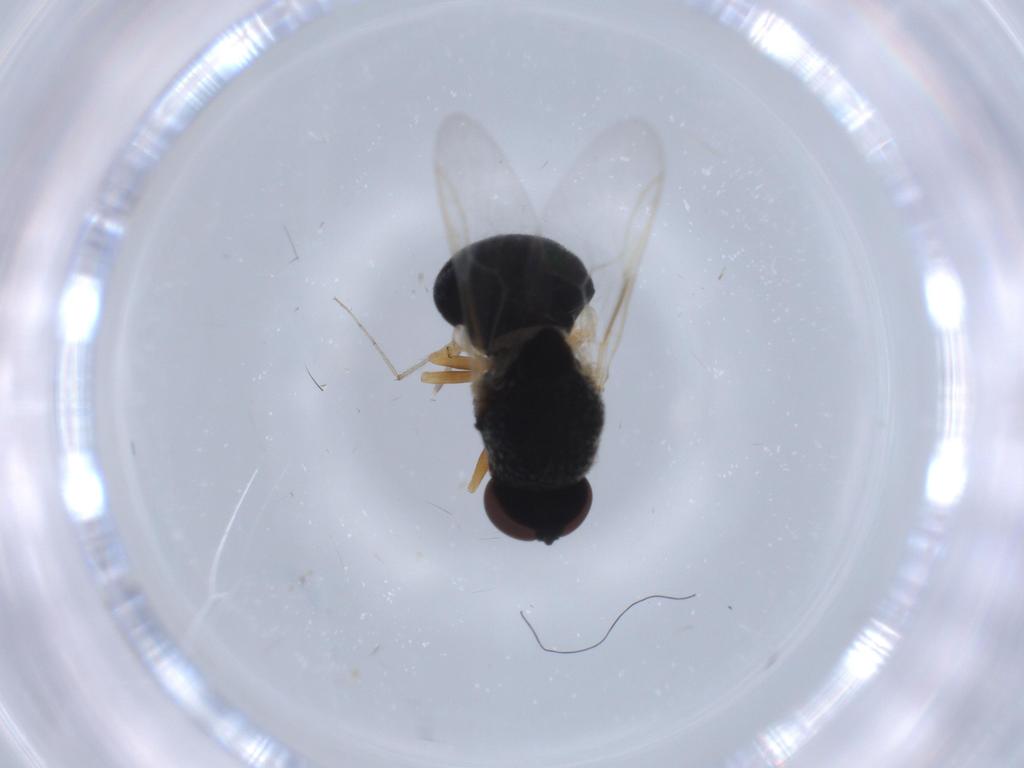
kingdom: Animalia
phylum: Arthropoda
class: Insecta
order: Diptera
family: Stratiomyidae
